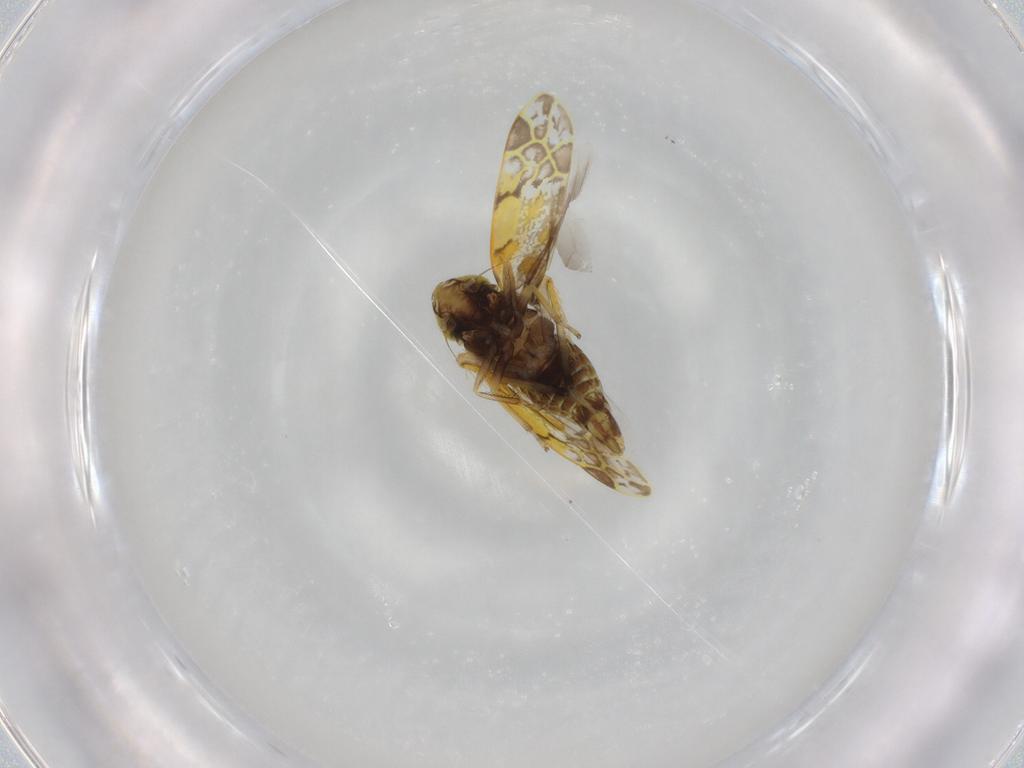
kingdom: Animalia
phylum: Arthropoda
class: Insecta
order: Hemiptera
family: Cicadellidae
